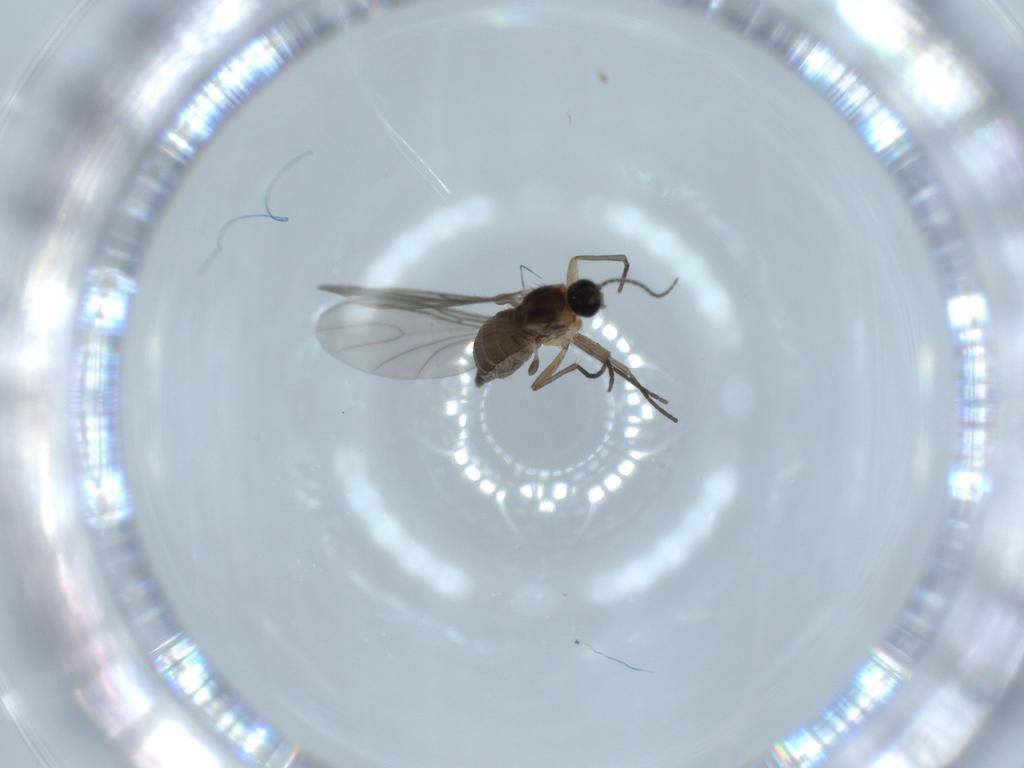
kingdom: Animalia
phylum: Arthropoda
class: Insecta
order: Diptera
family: Sciaridae
